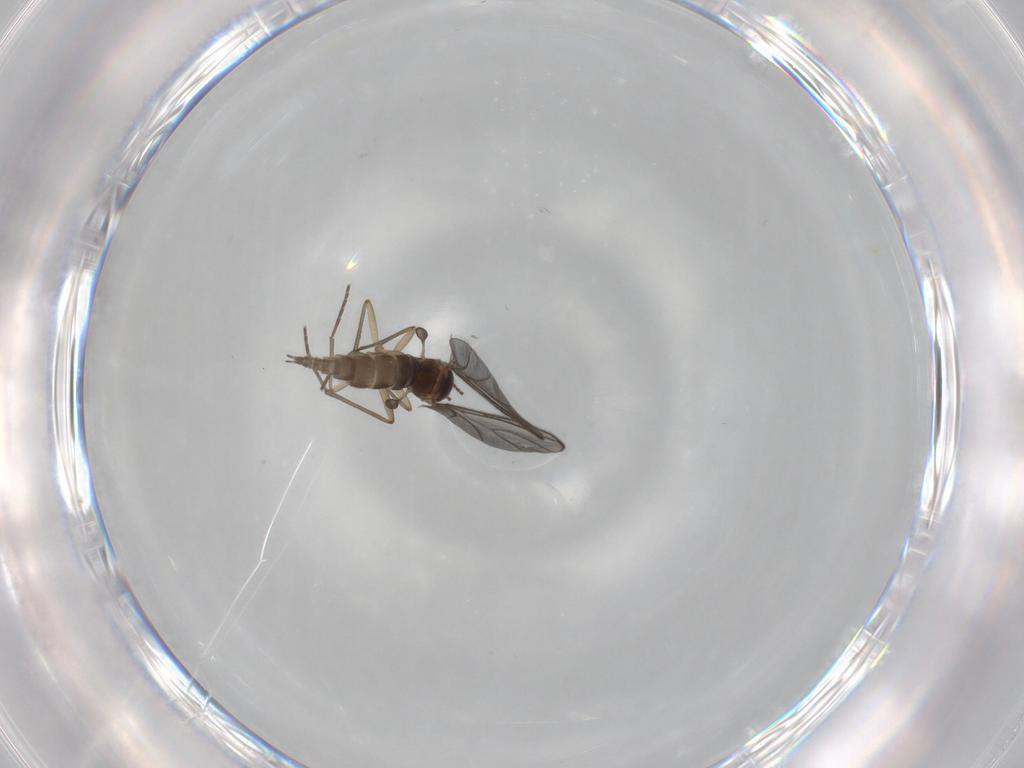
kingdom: Animalia
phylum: Arthropoda
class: Insecta
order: Diptera
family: Sciaridae
